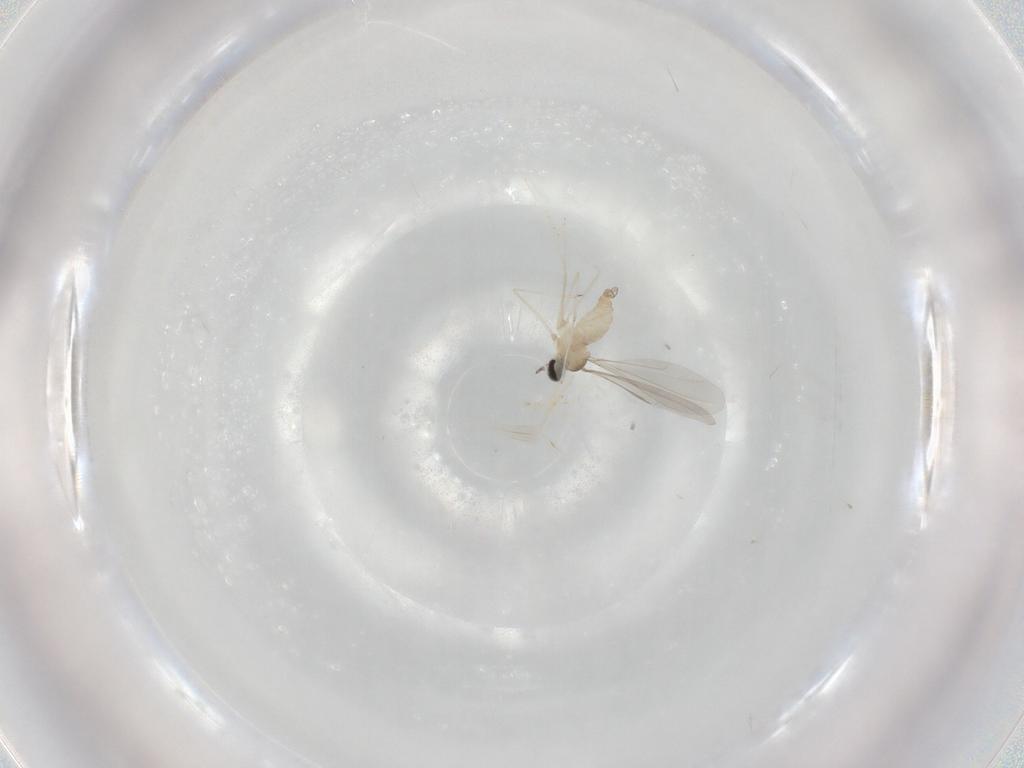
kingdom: Animalia
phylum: Arthropoda
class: Insecta
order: Diptera
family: Cecidomyiidae
